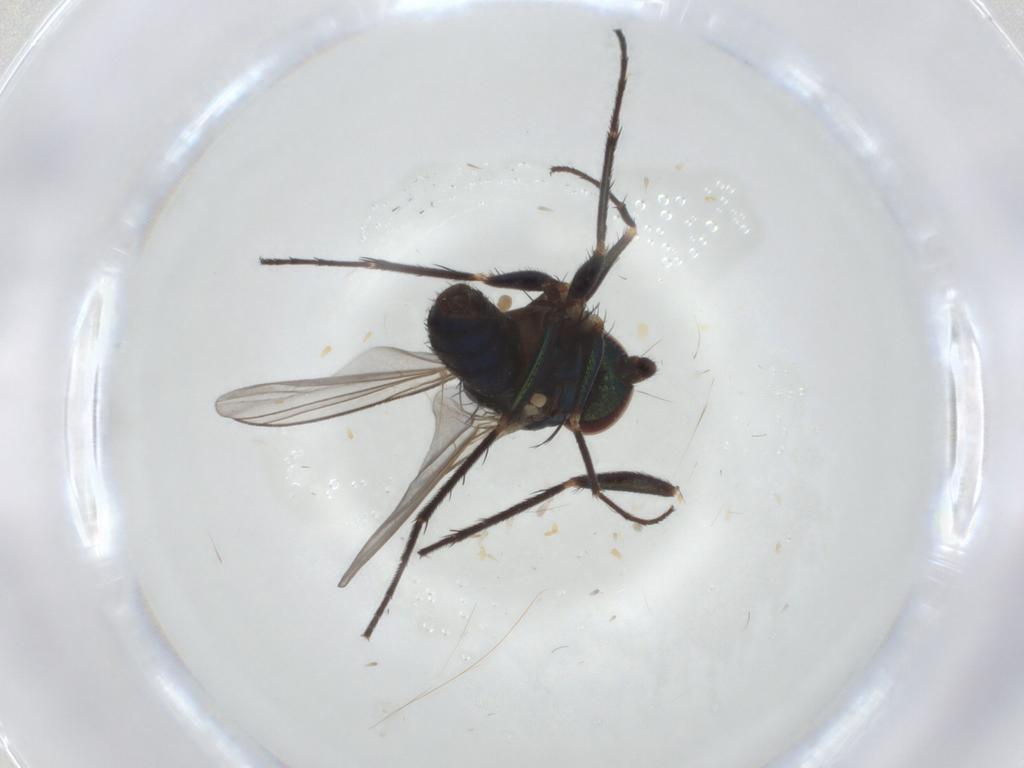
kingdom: Animalia
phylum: Arthropoda
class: Insecta
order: Diptera
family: Dolichopodidae
